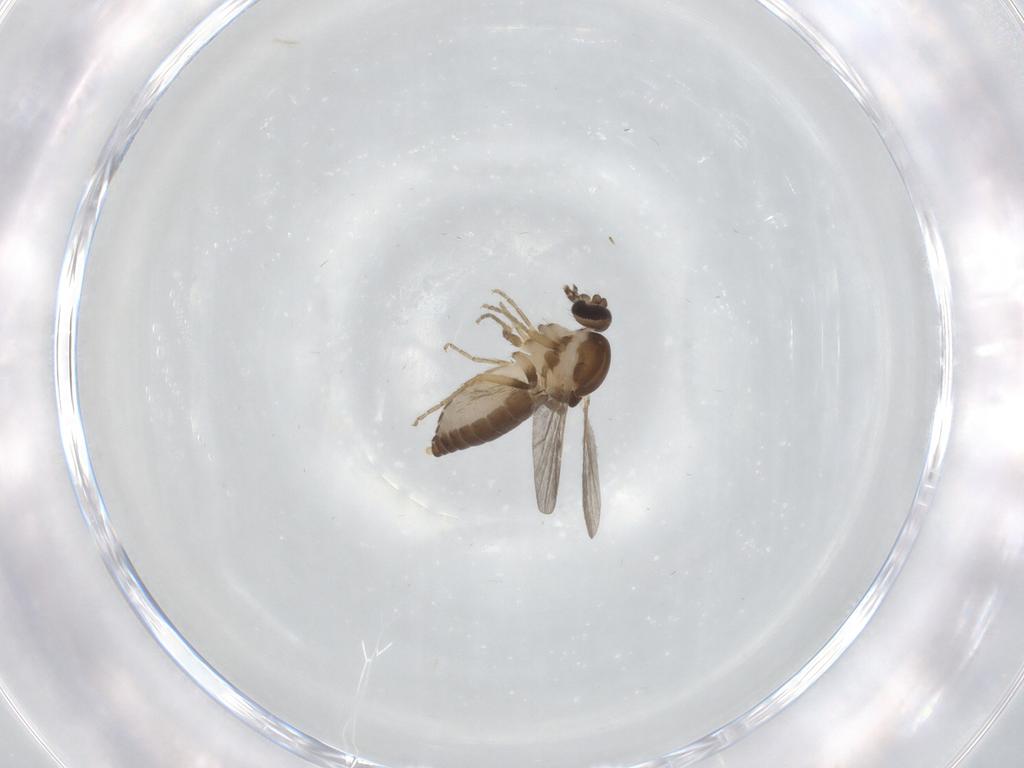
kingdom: Animalia
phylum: Arthropoda
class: Insecta
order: Diptera
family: Ceratopogonidae
